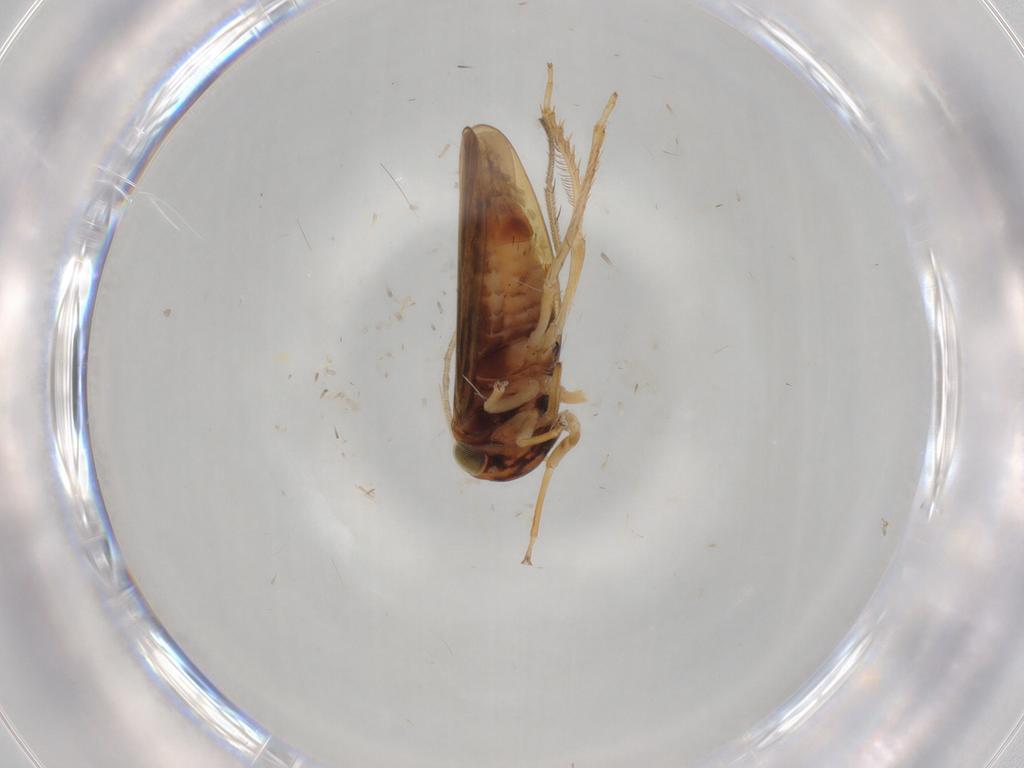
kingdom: Animalia
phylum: Arthropoda
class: Insecta
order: Hemiptera
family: Cicadellidae
